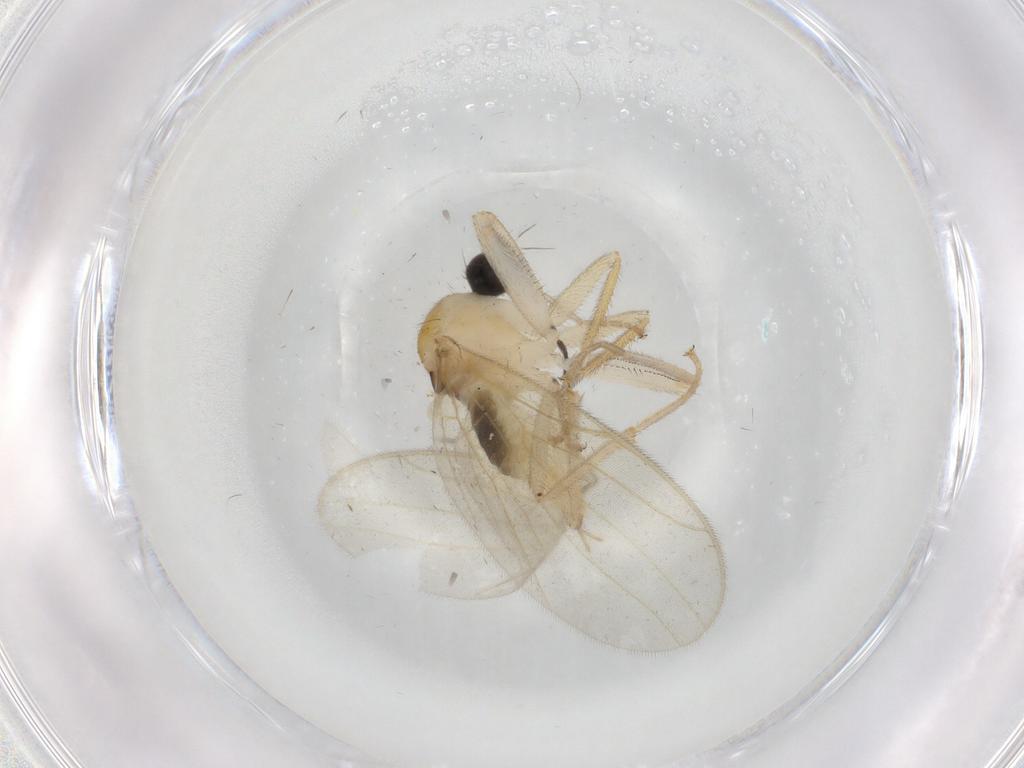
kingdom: Animalia
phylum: Arthropoda
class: Insecta
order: Diptera
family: Hybotidae
